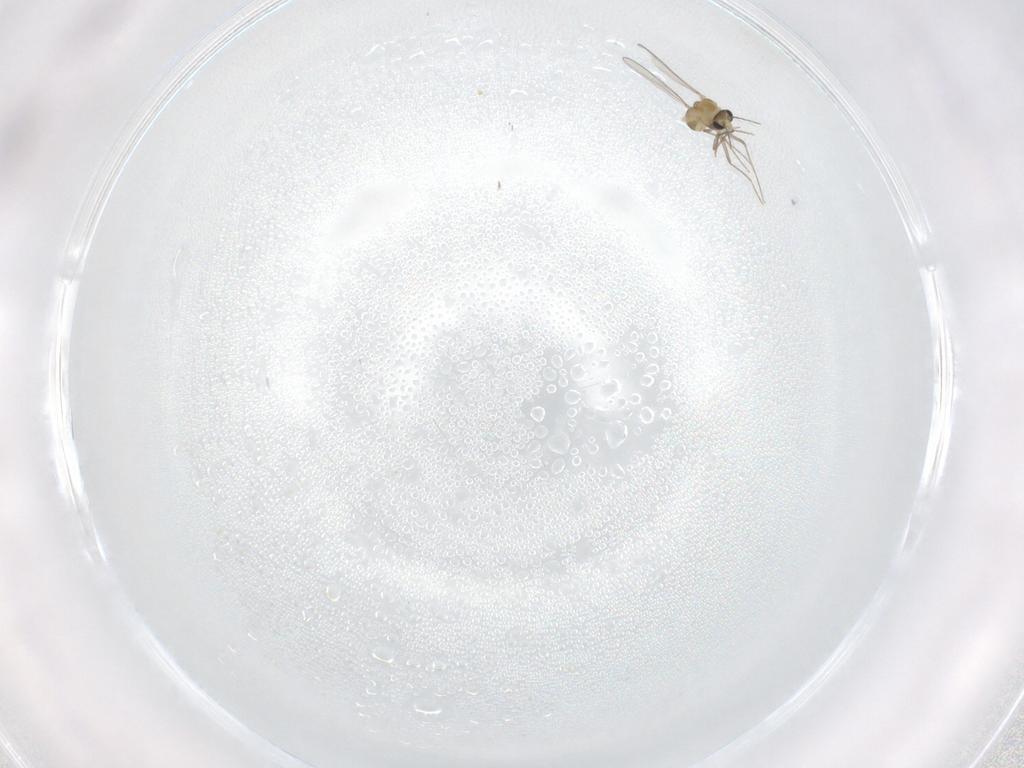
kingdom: Animalia
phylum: Arthropoda
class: Insecta
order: Diptera
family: Chironomidae
